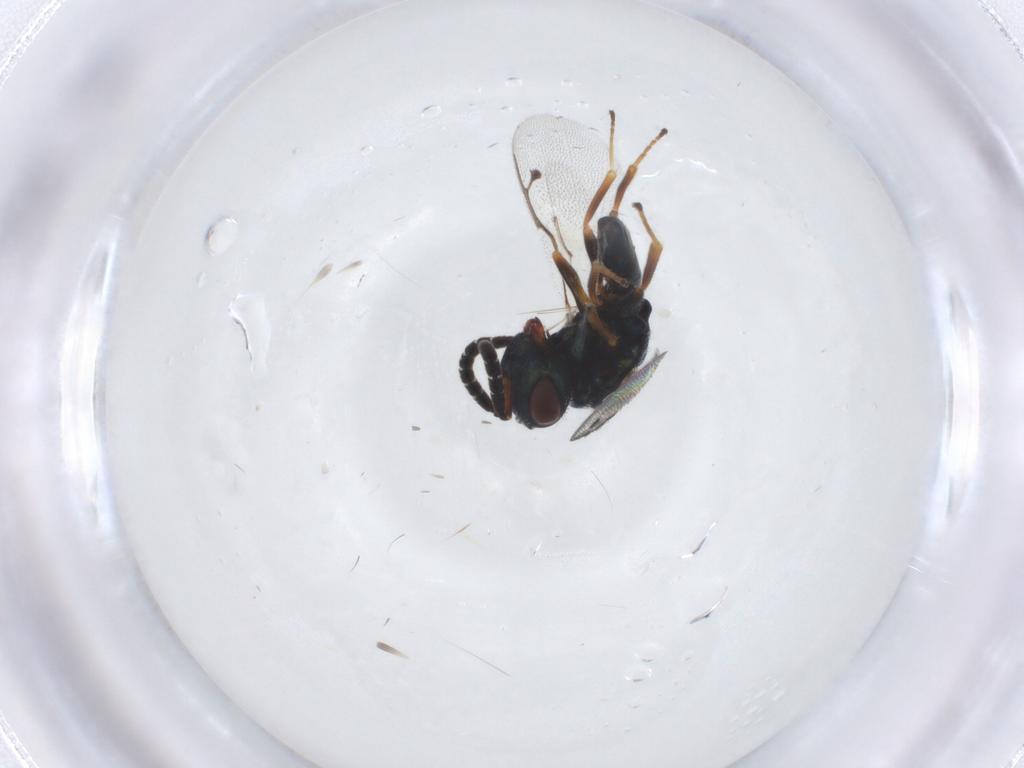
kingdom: Animalia
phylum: Arthropoda
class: Insecta
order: Hymenoptera
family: Pteromalidae
